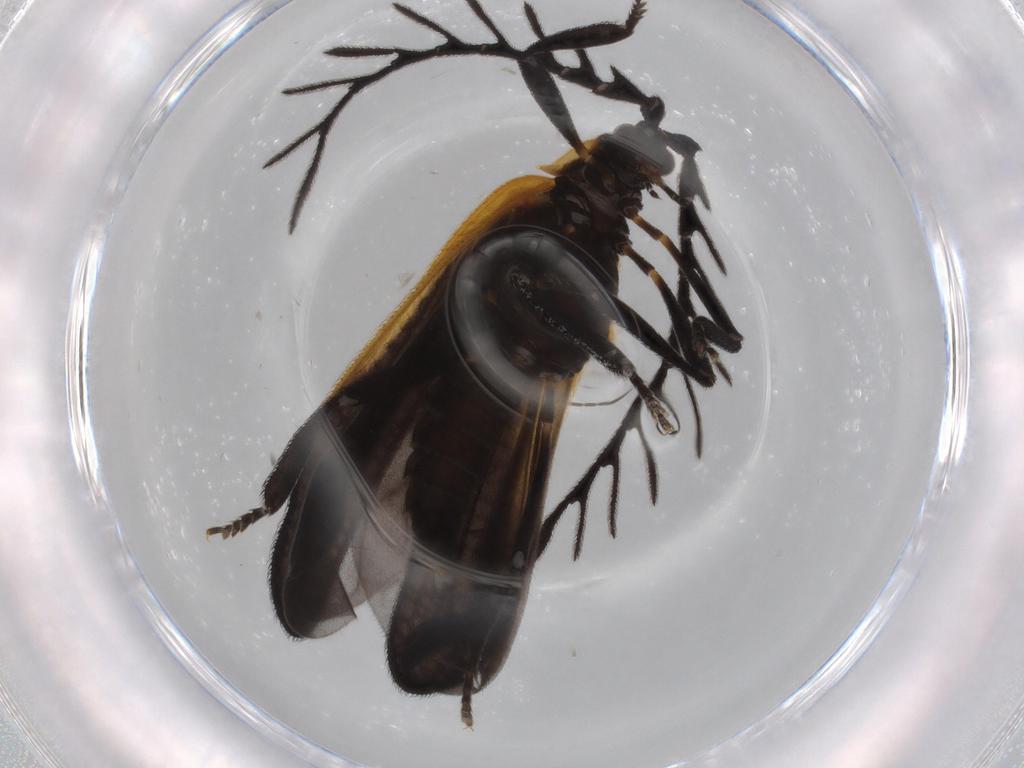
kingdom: Animalia
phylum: Arthropoda
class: Insecta
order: Coleoptera
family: Lycidae
